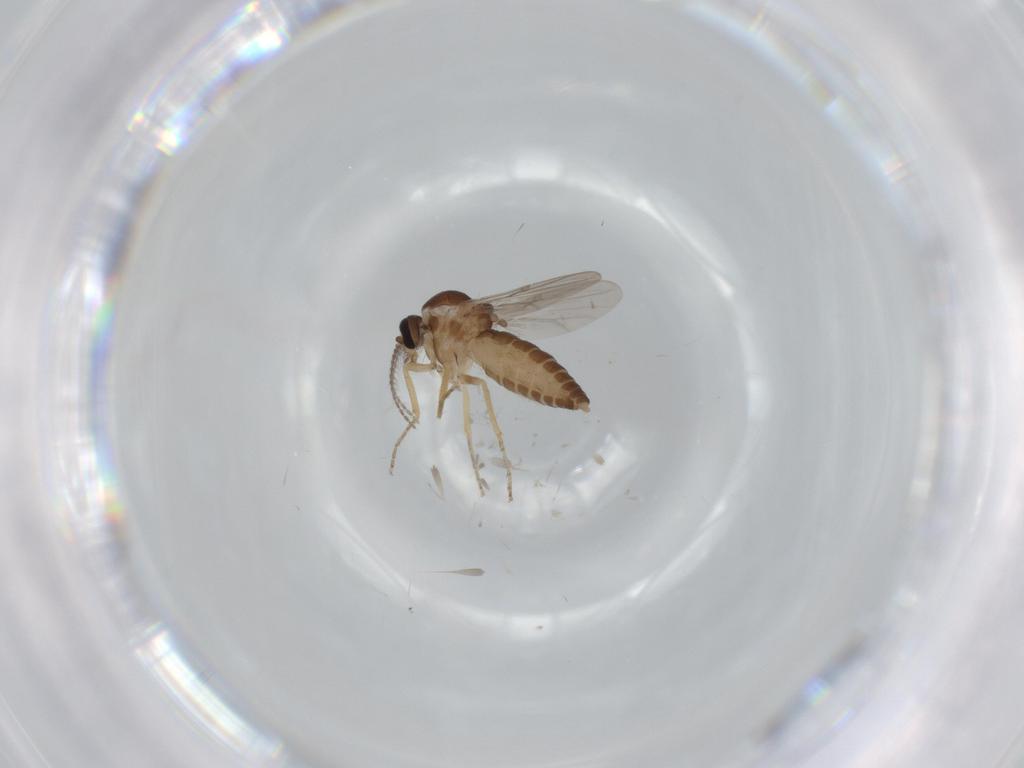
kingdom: Animalia
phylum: Arthropoda
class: Insecta
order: Diptera
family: Ceratopogonidae
